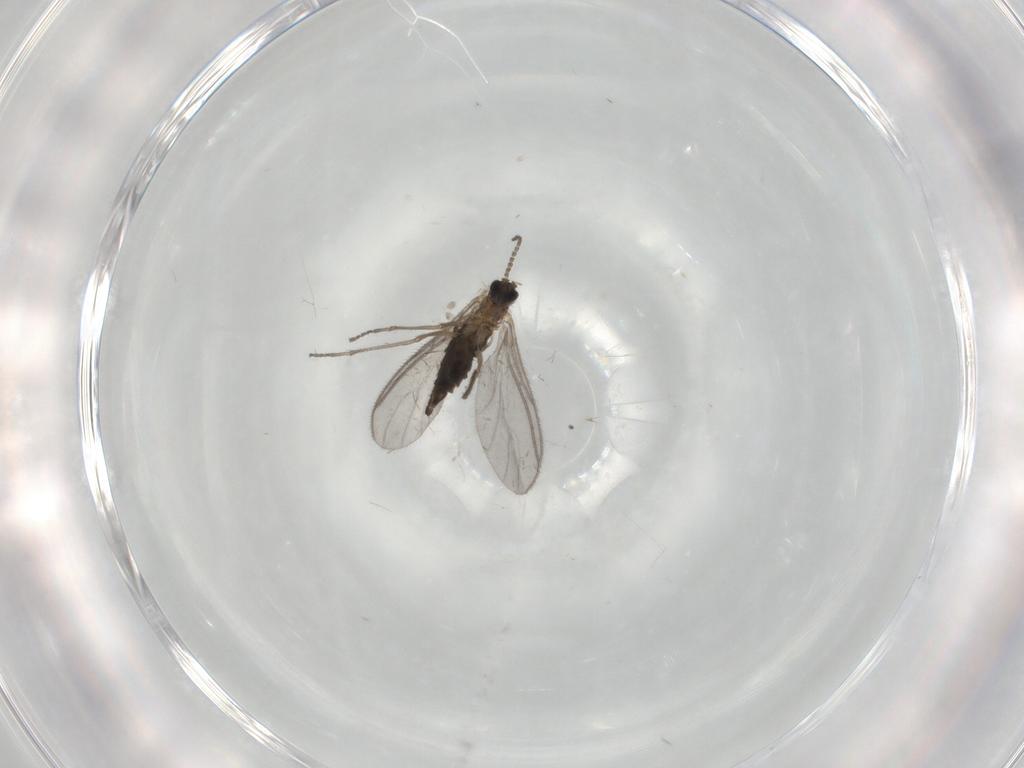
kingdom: Animalia
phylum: Arthropoda
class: Insecta
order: Diptera
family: Sciaridae
